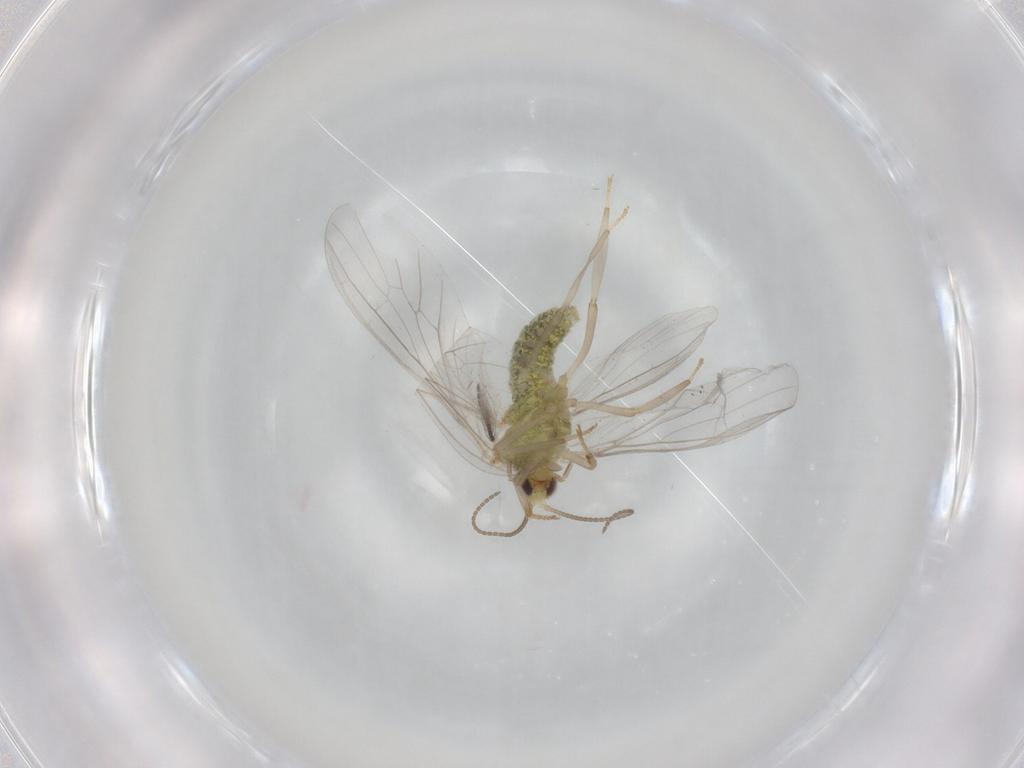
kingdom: Animalia
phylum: Arthropoda
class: Insecta
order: Neuroptera
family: Coniopterygidae
